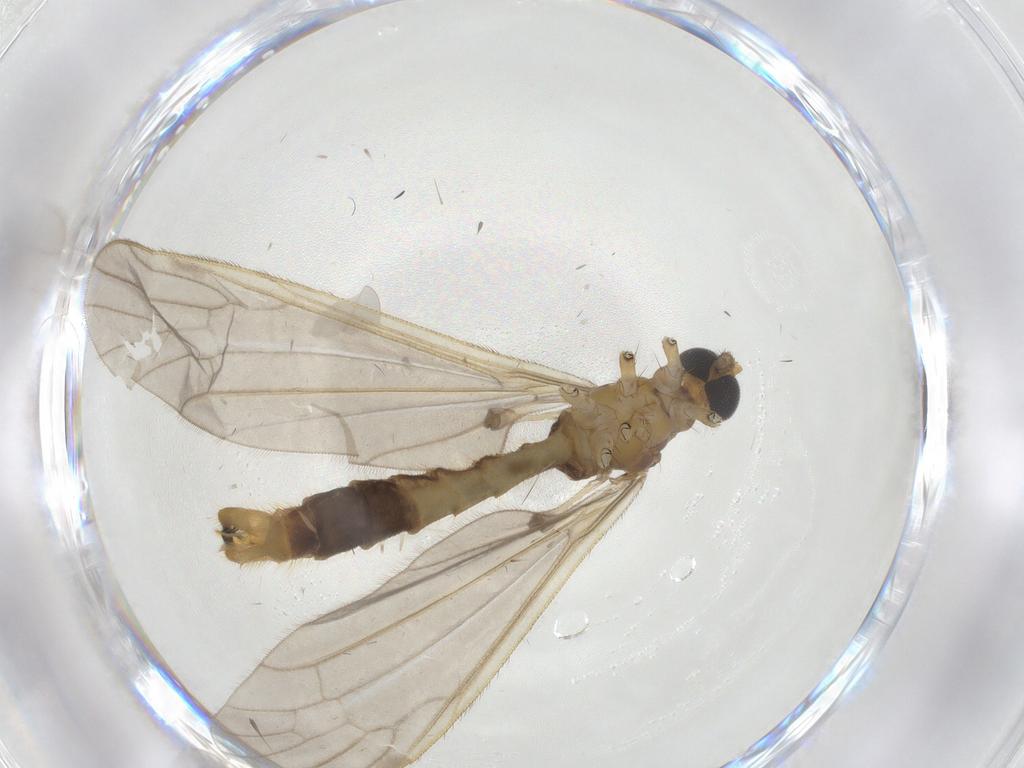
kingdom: Animalia
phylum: Arthropoda
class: Insecta
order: Diptera
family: Limoniidae
